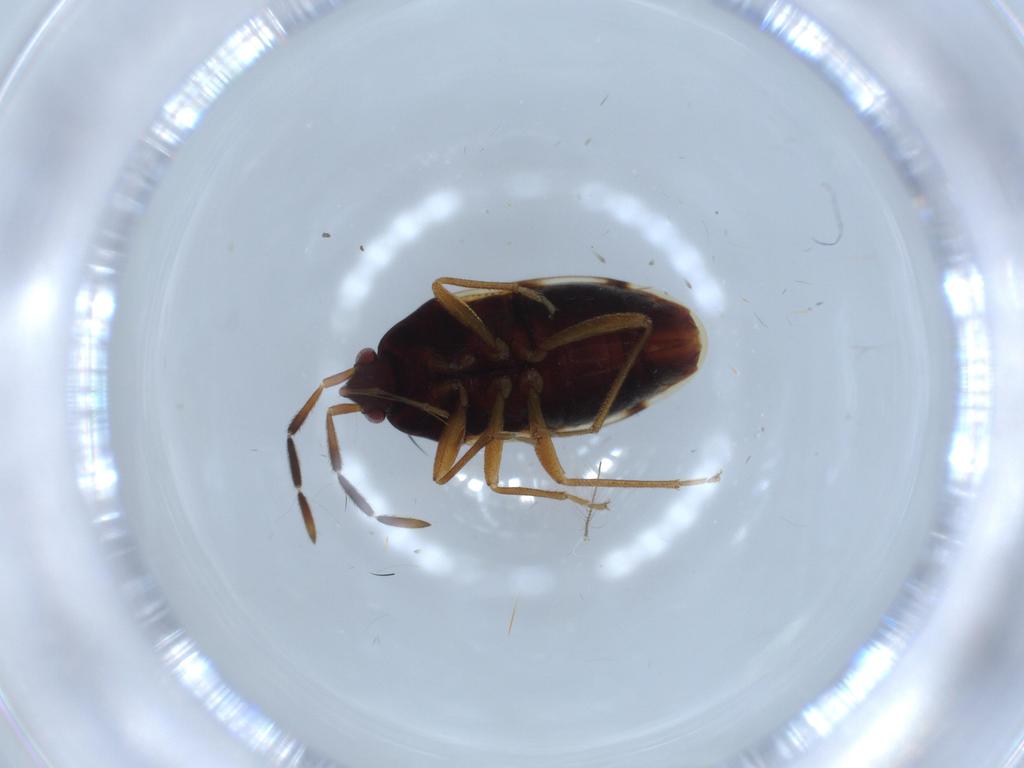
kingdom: Animalia
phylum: Arthropoda
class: Insecta
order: Hemiptera
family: Rhyparochromidae
